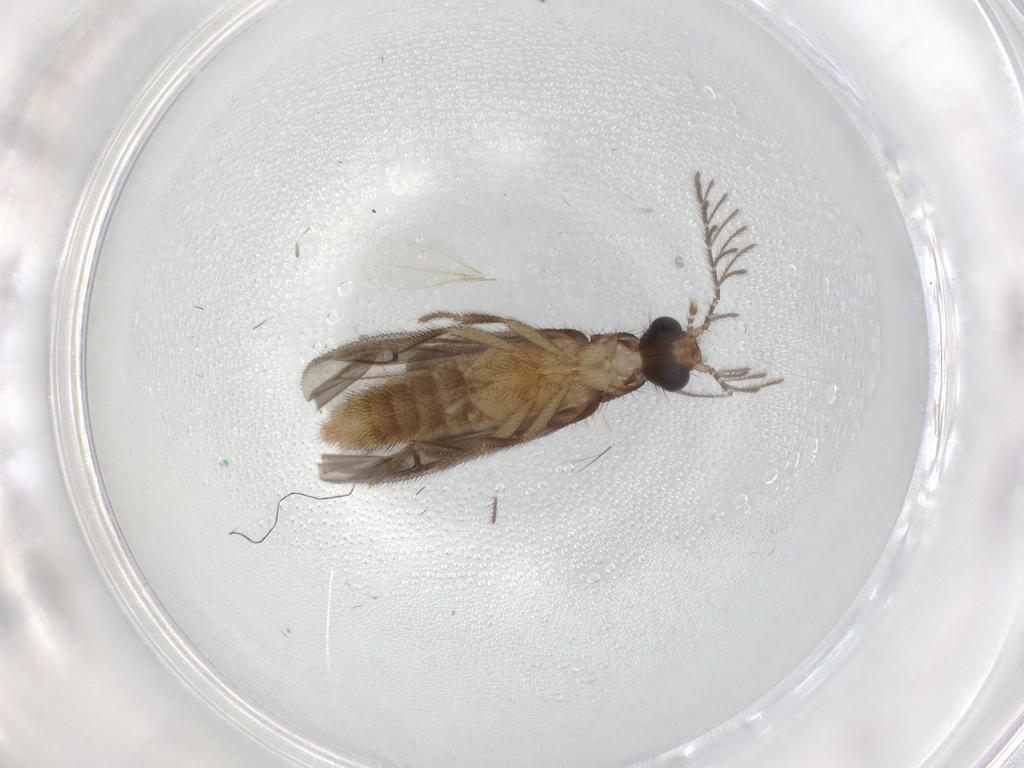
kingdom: Animalia
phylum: Arthropoda
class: Insecta
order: Coleoptera
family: Chrysomelidae
